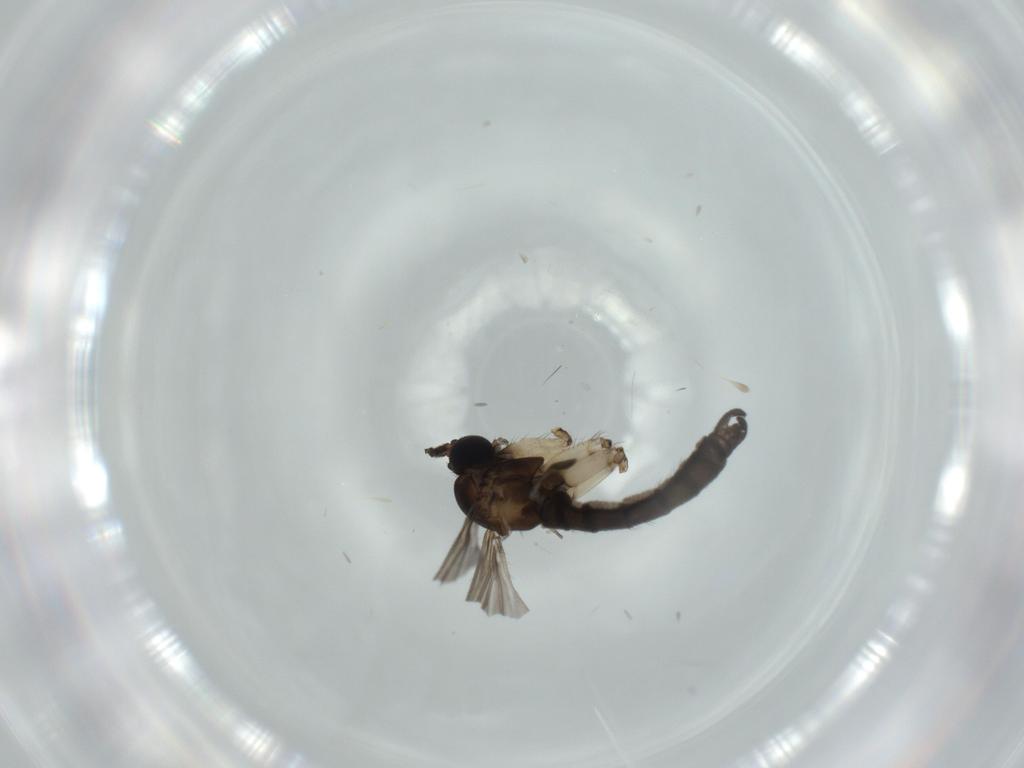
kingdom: Animalia
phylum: Arthropoda
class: Insecta
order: Diptera
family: Sciaridae
